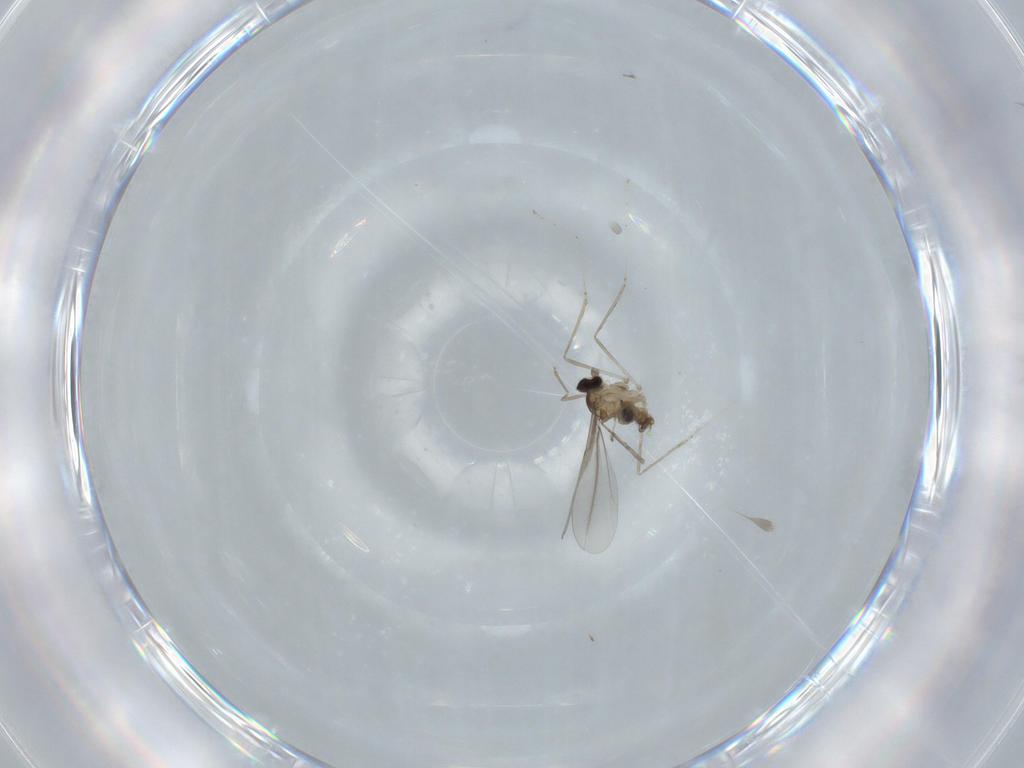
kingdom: Animalia
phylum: Arthropoda
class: Insecta
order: Diptera
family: Cecidomyiidae
